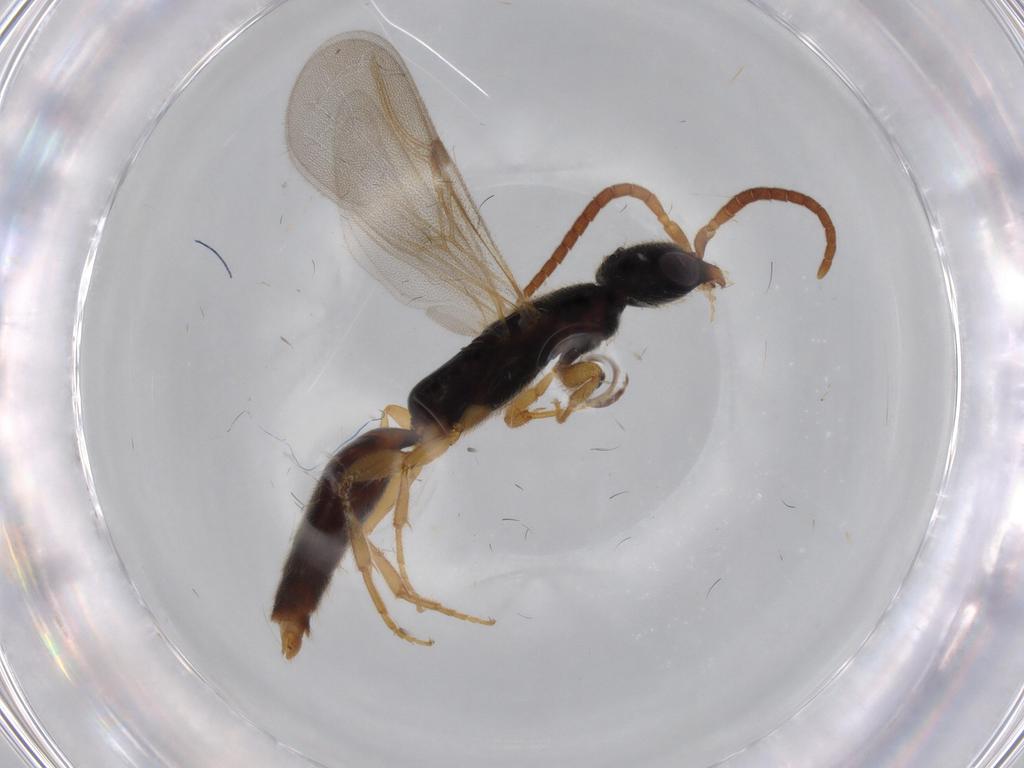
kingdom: Animalia
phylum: Arthropoda
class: Insecta
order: Hymenoptera
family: Bethylidae
